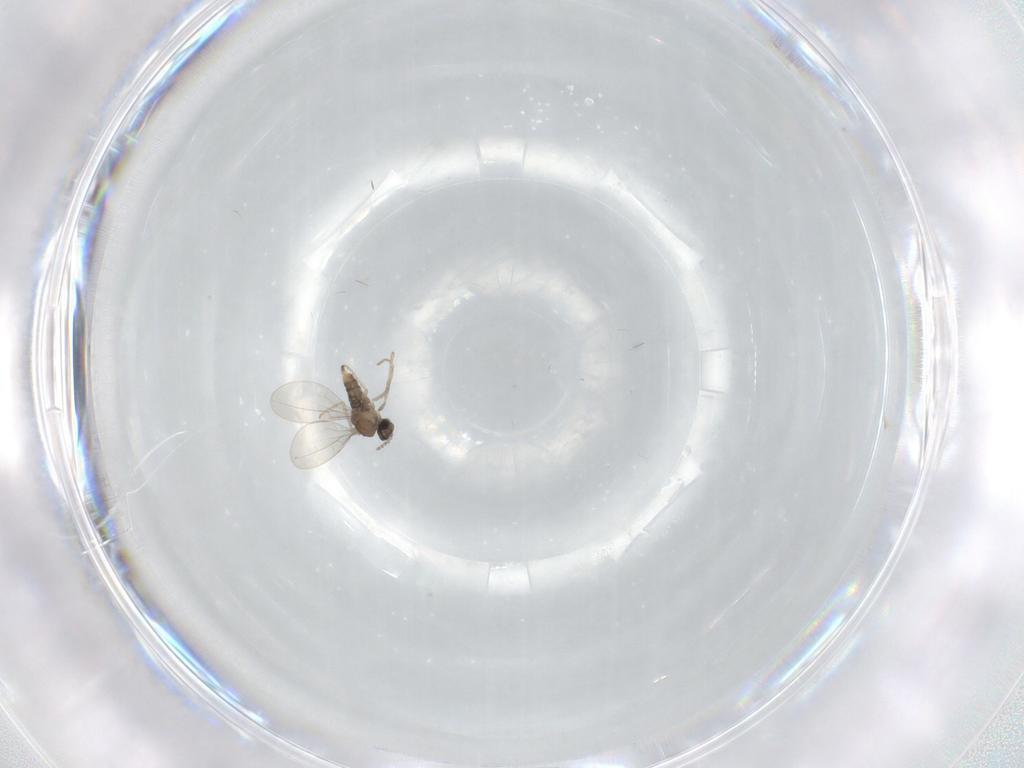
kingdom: Animalia
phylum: Arthropoda
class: Insecta
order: Diptera
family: Cecidomyiidae
